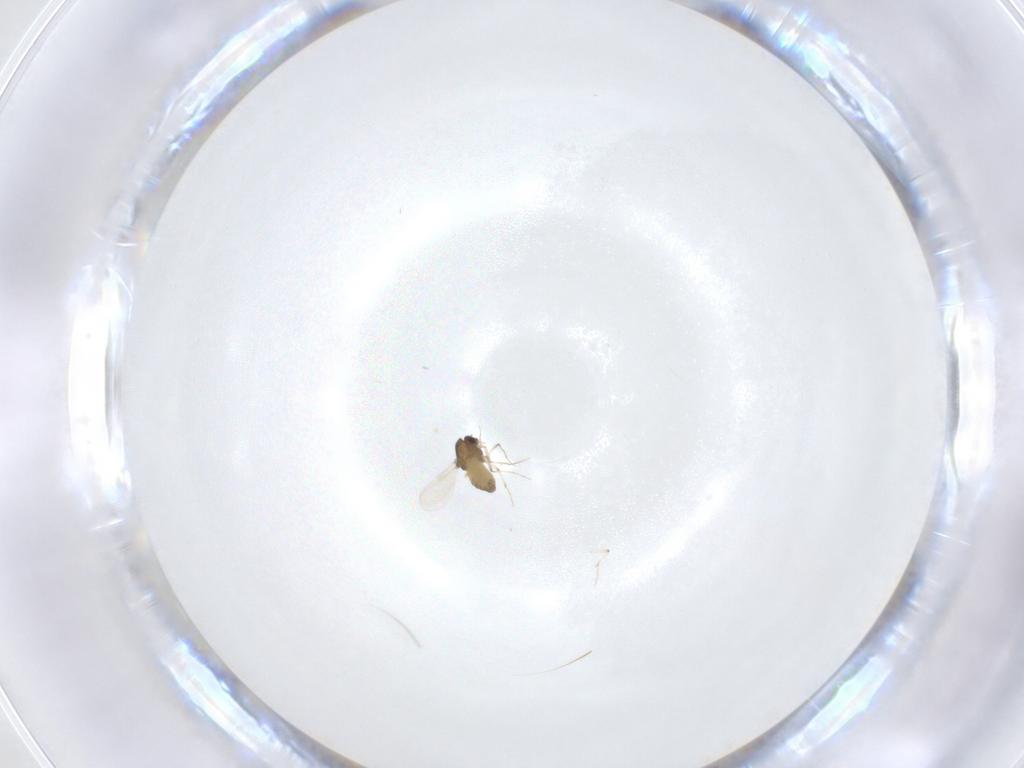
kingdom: Animalia
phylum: Arthropoda
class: Insecta
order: Diptera
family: Chironomidae
